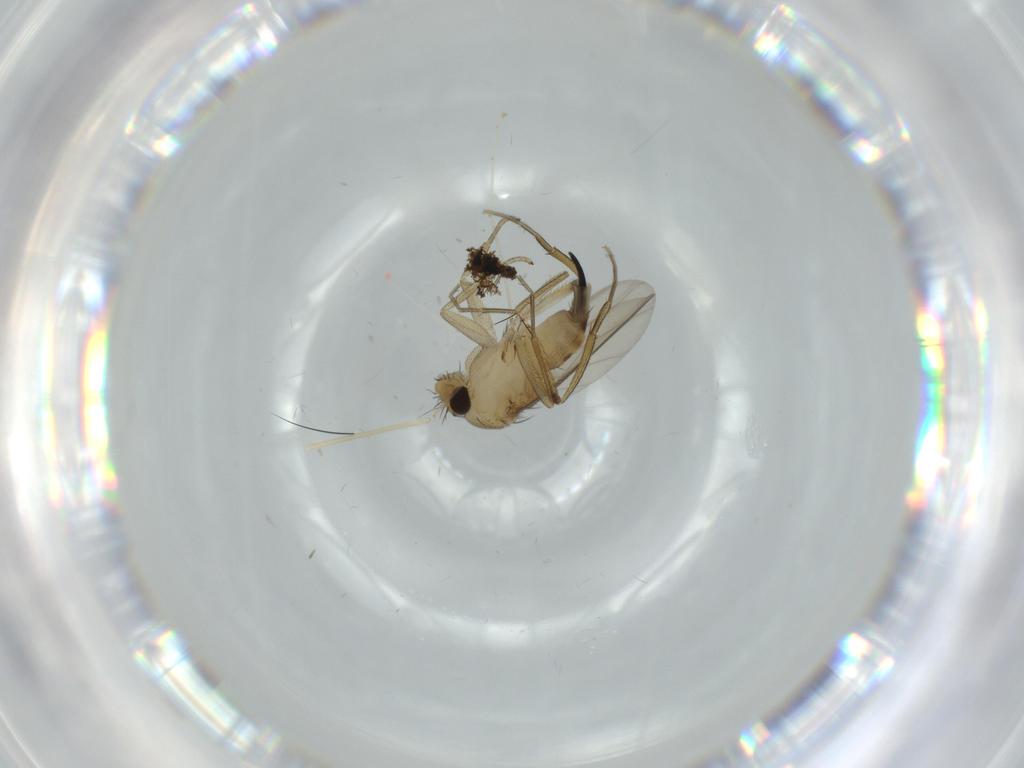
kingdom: Animalia
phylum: Arthropoda
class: Insecta
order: Diptera
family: Phoridae
